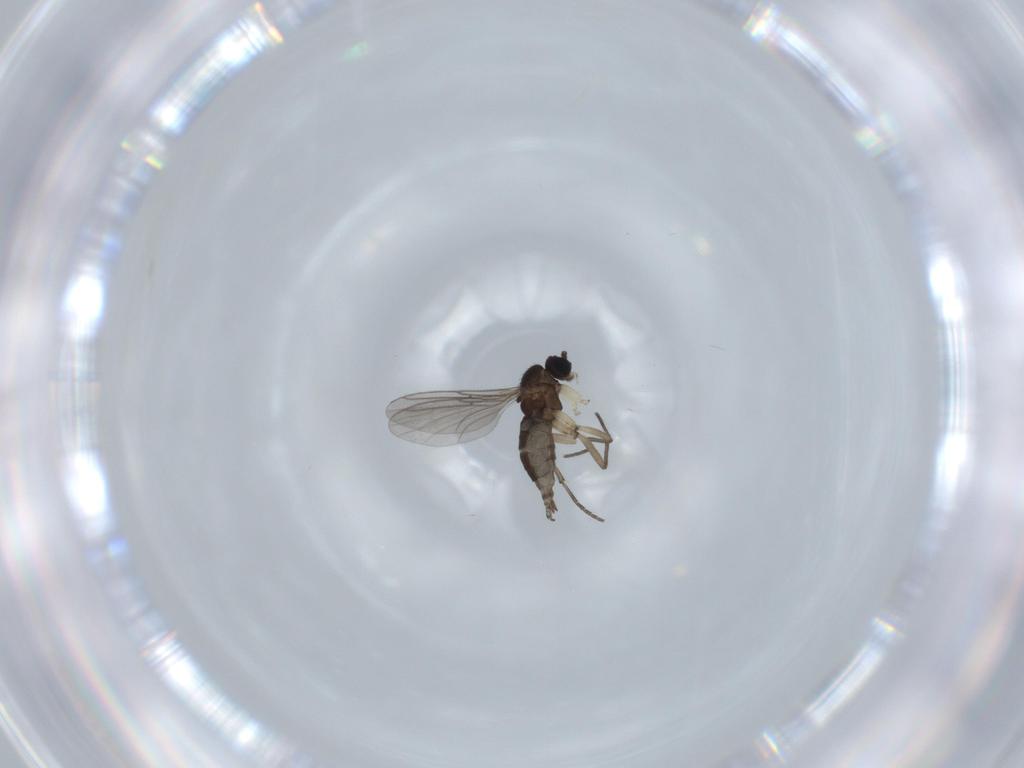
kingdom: Animalia
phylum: Arthropoda
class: Insecta
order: Diptera
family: Sciaridae
